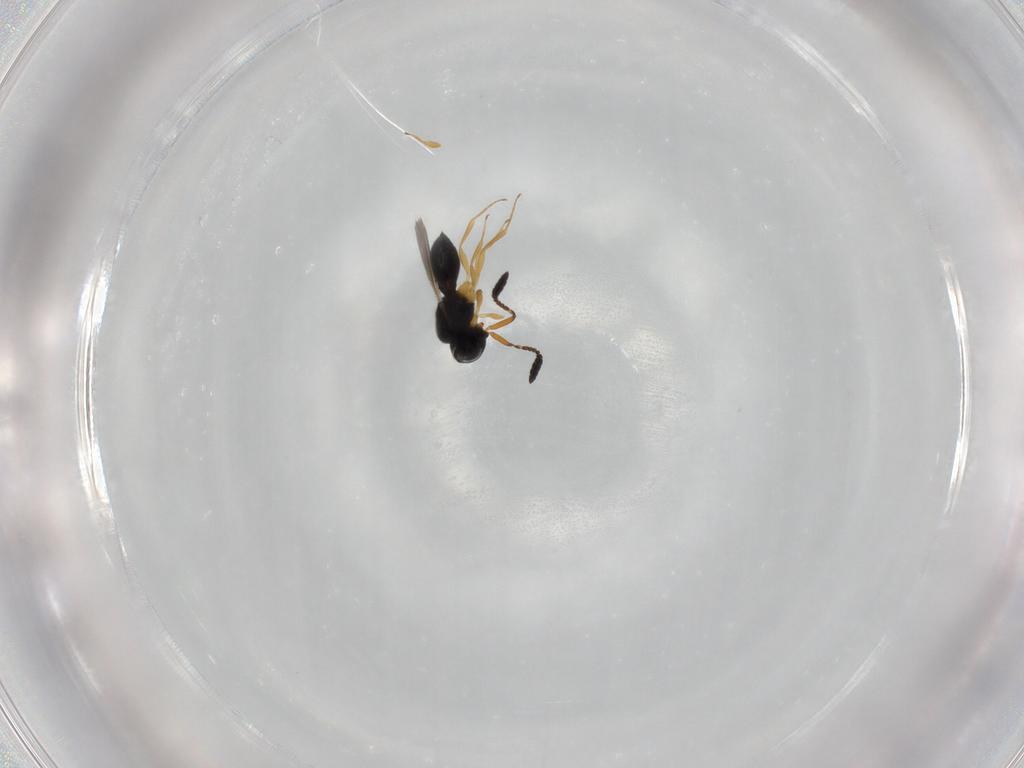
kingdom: Animalia
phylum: Arthropoda
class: Insecta
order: Hymenoptera
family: Scelionidae
